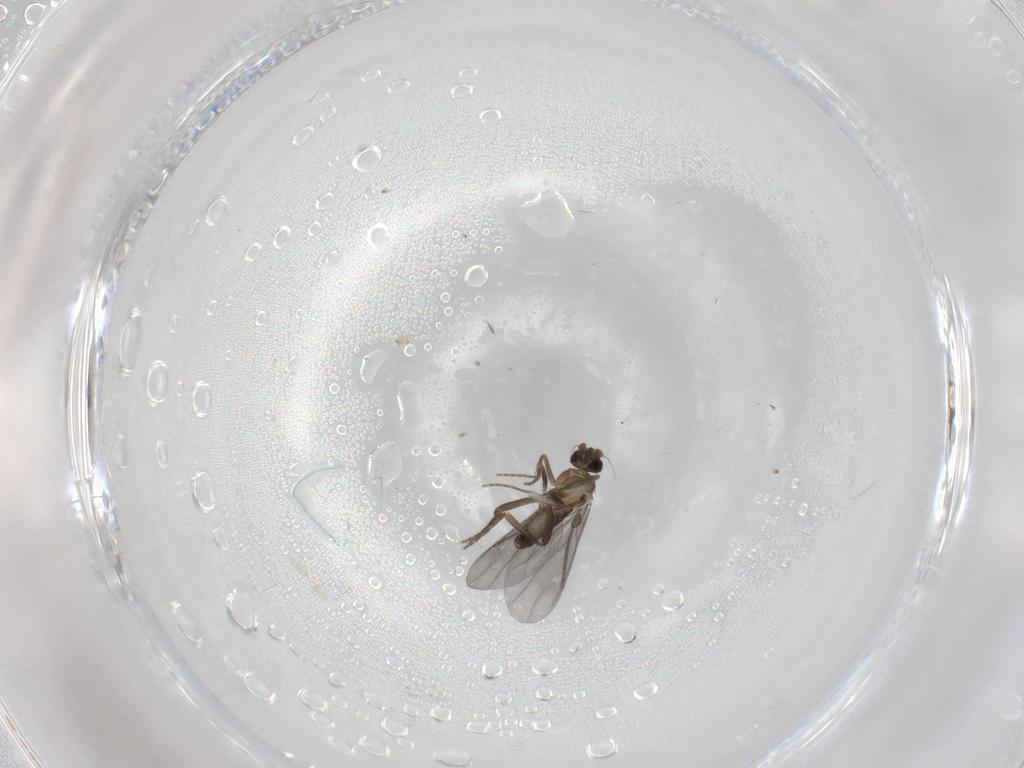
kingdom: Animalia
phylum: Arthropoda
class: Insecta
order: Diptera
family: Phoridae
